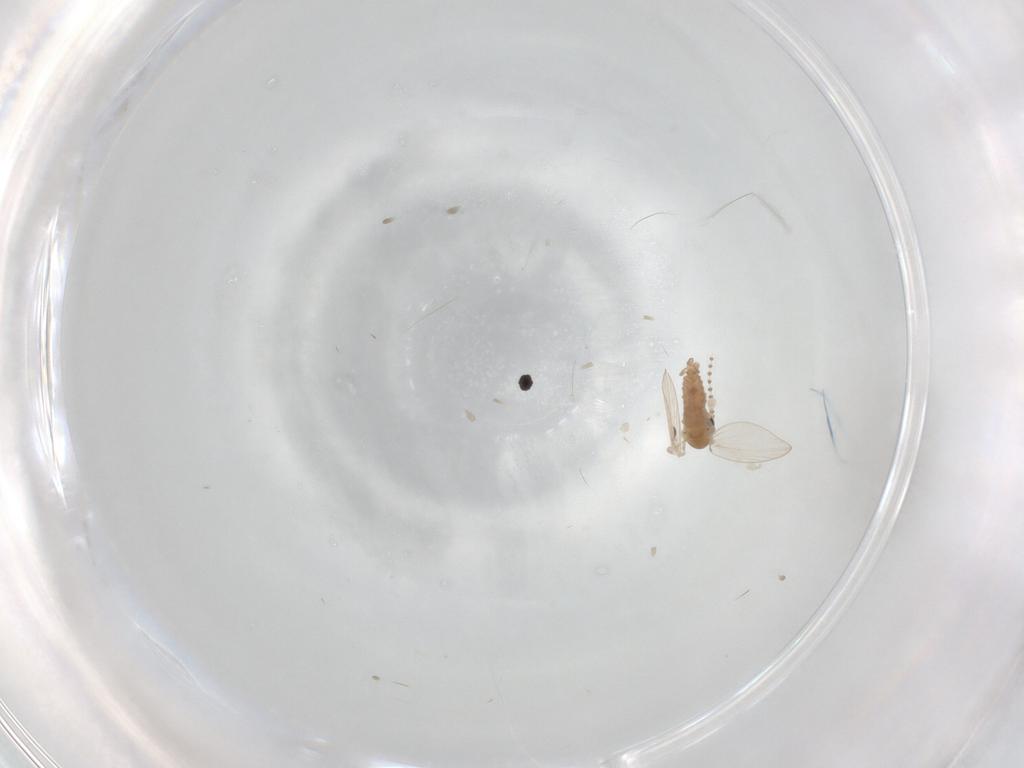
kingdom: Animalia
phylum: Arthropoda
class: Insecta
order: Diptera
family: Psychodidae
